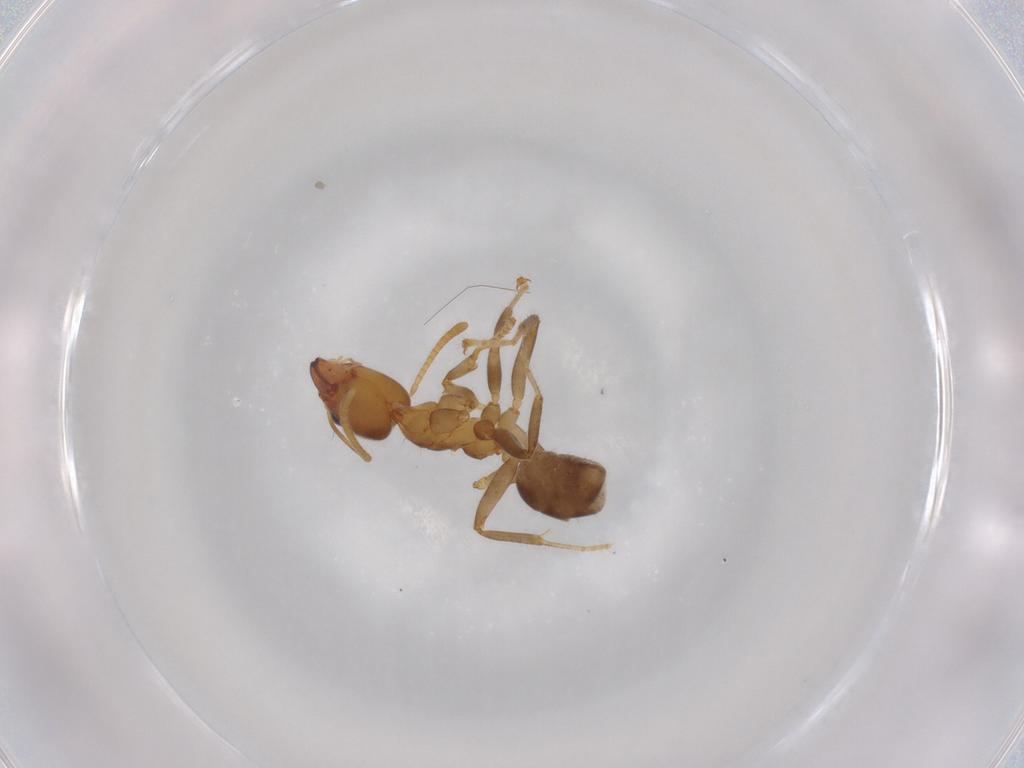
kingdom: Animalia
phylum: Arthropoda
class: Insecta
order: Hymenoptera
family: Formicidae
